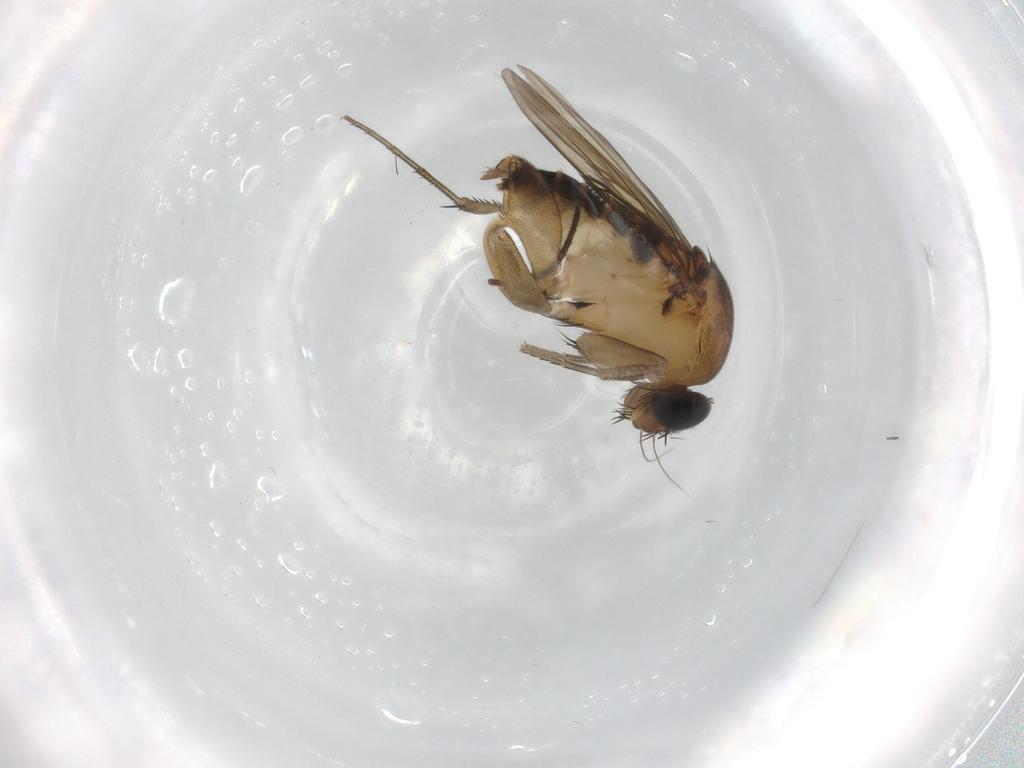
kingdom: Animalia
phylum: Arthropoda
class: Insecta
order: Diptera
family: Phoridae
